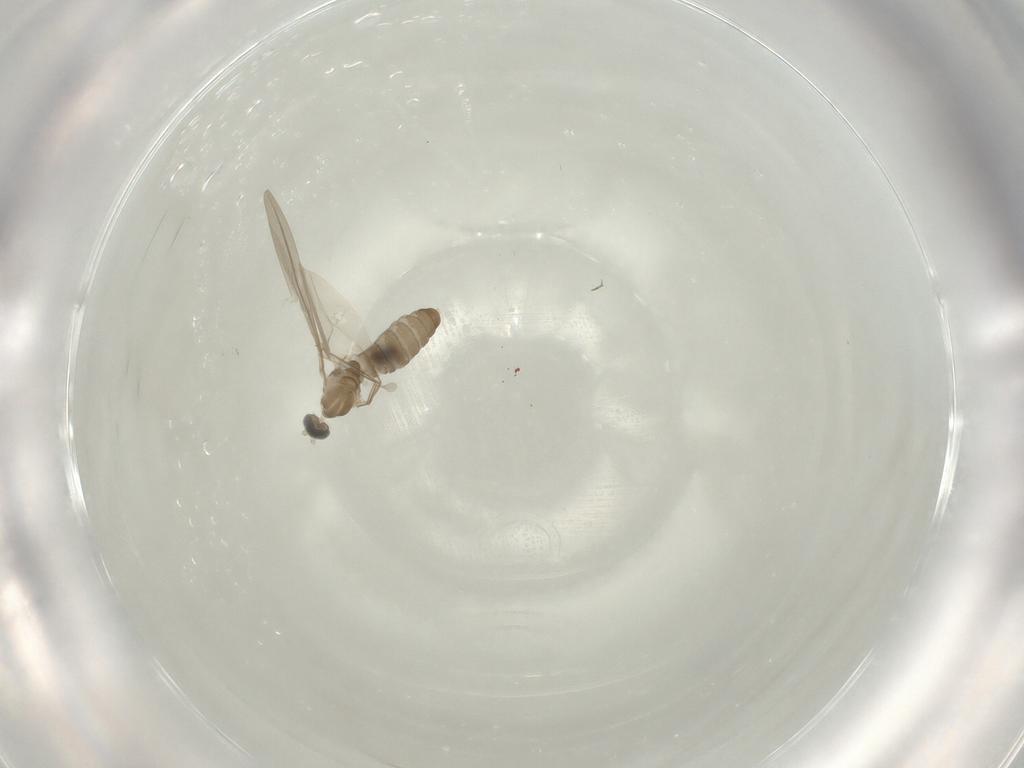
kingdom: Animalia
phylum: Arthropoda
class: Insecta
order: Diptera
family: Cecidomyiidae
